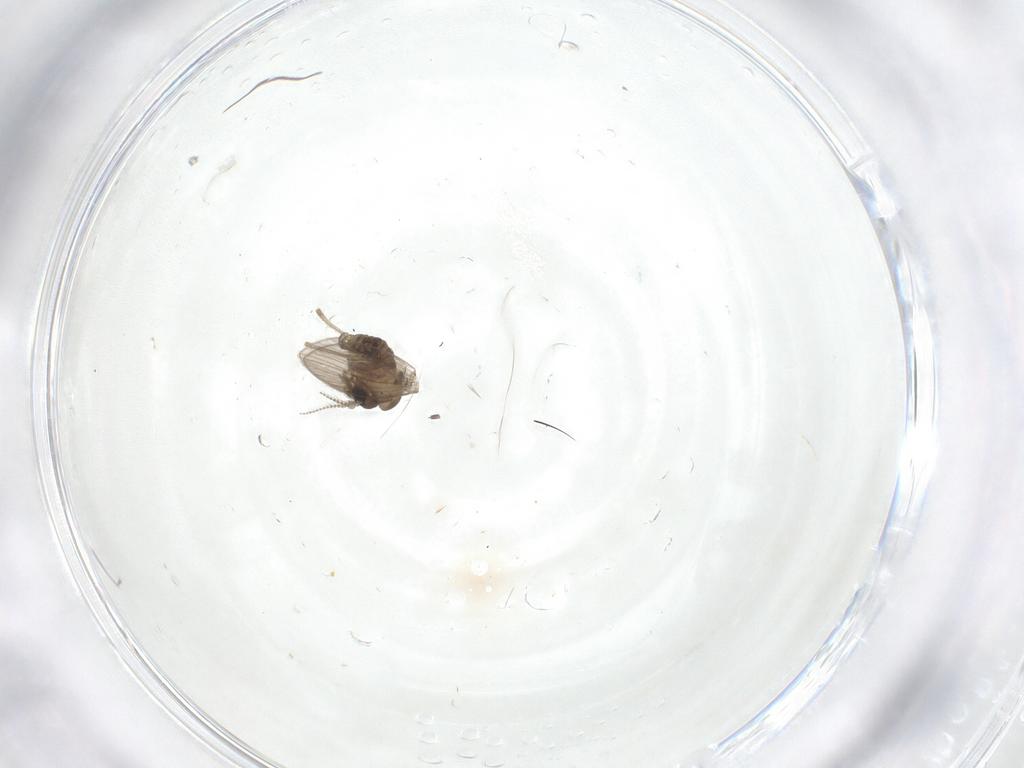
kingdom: Animalia
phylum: Arthropoda
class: Insecta
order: Diptera
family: Psychodidae
